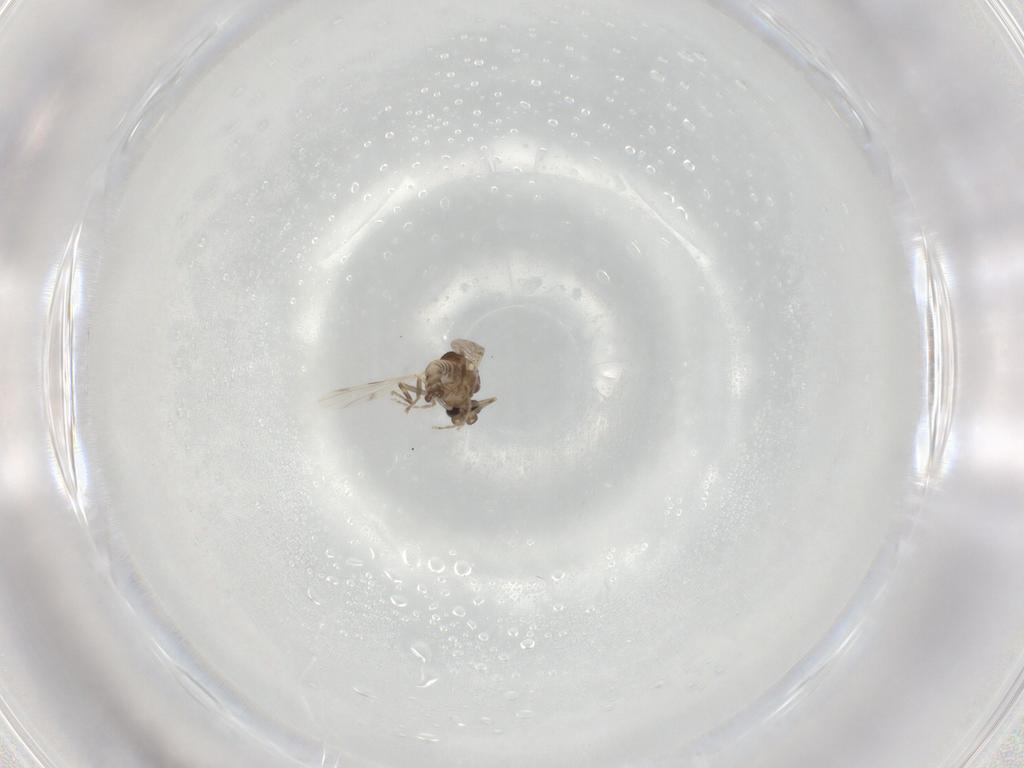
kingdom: Animalia
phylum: Arthropoda
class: Insecta
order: Diptera
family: Ceratopogonidae
